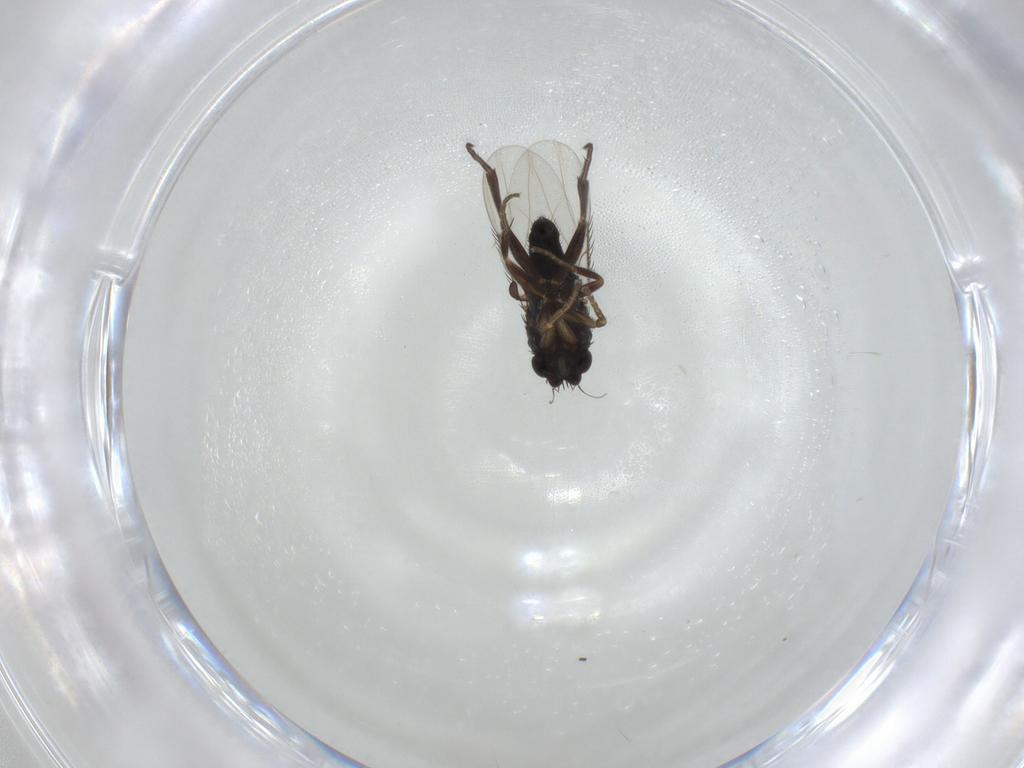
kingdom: Animalia
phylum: Arthropoda
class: Insecta
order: Diptera
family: Phoridae
